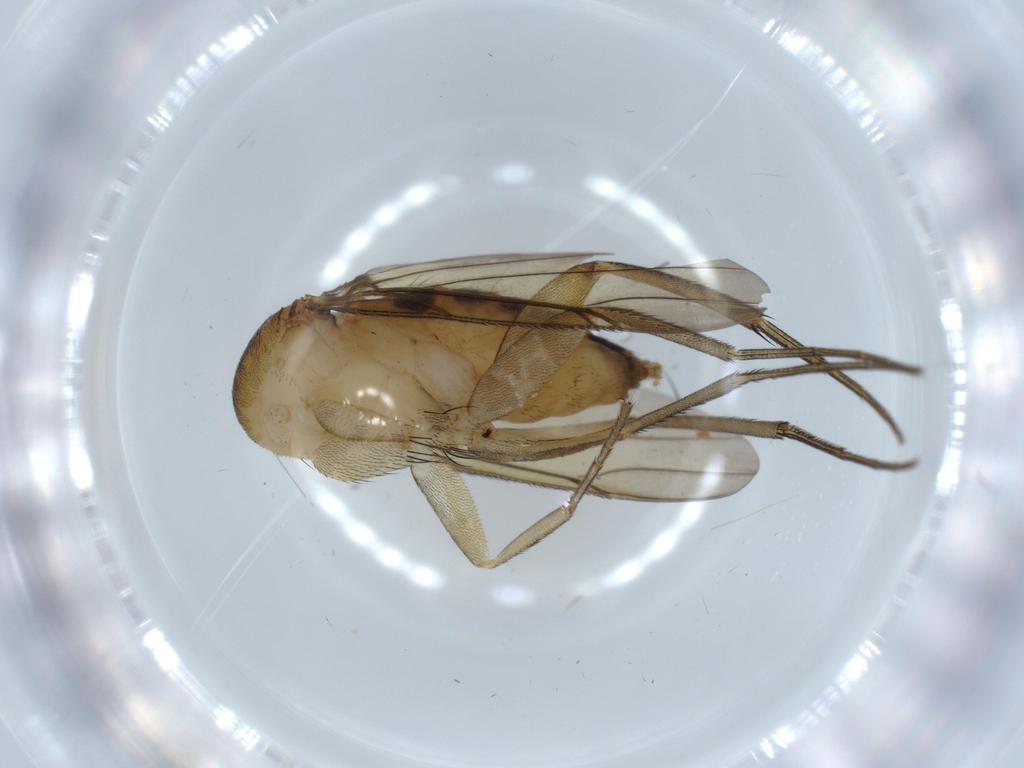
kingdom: Animalia
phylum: Arthropoda
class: Insecta
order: Diptera
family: Phoridae
